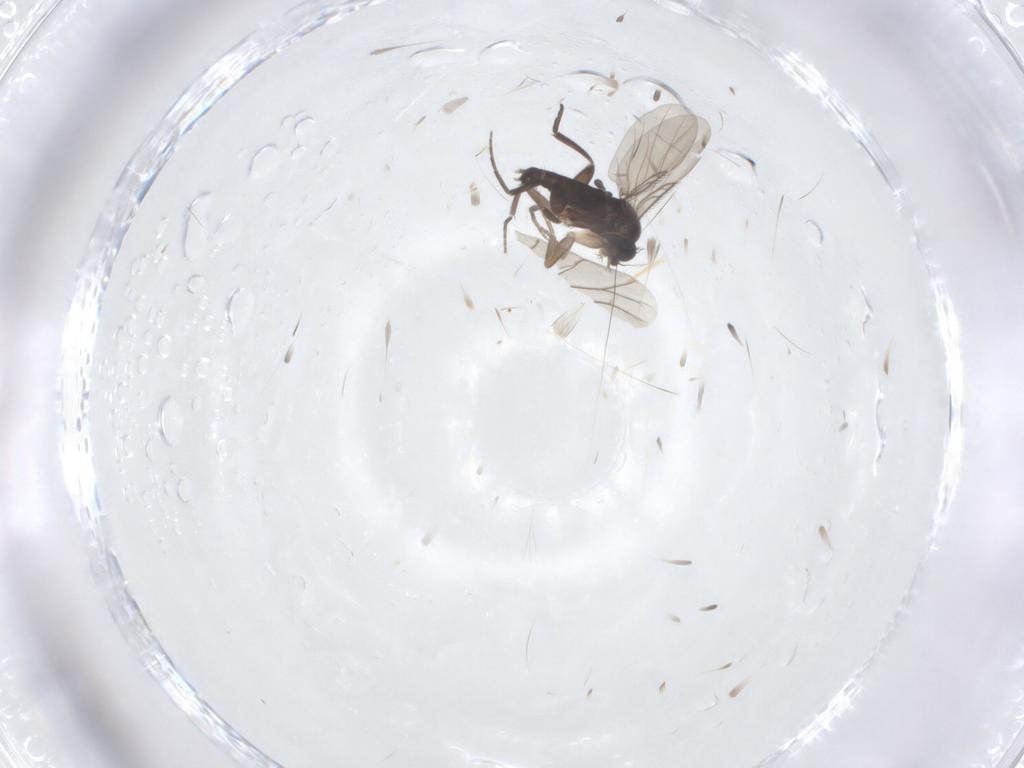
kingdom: Animalia
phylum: Arthropoda
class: Insecta
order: Diptera
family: Phoridae
